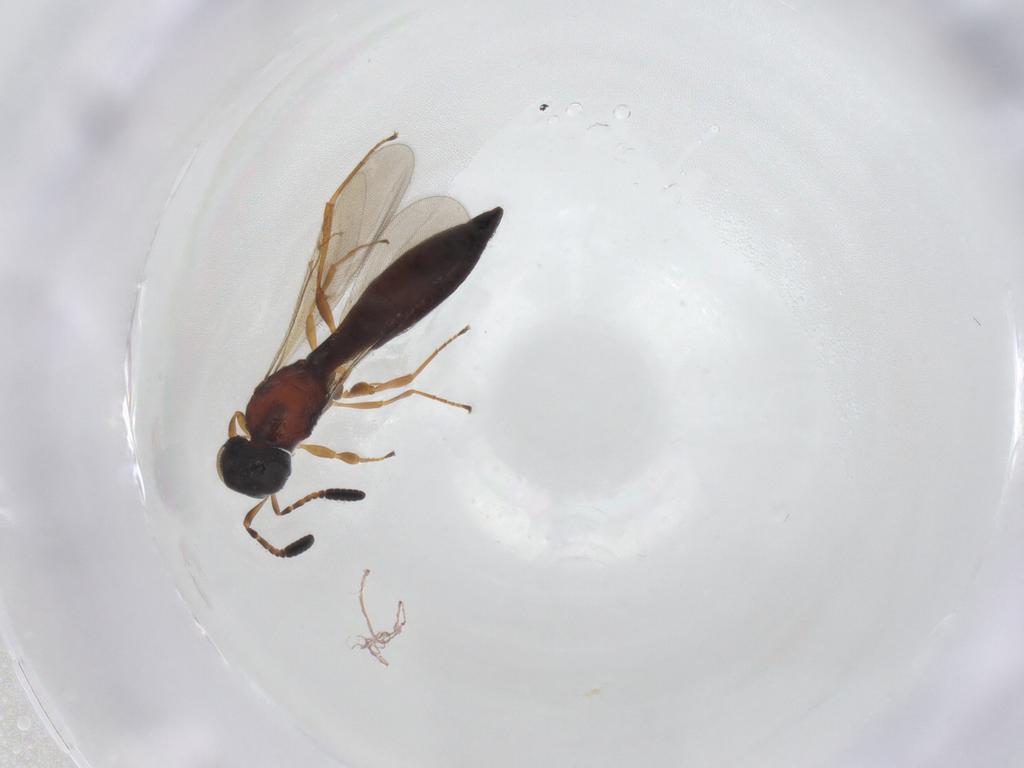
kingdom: Animalia
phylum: Arthropoda
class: Insecta
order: Hymenoptera
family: Scelionidae
